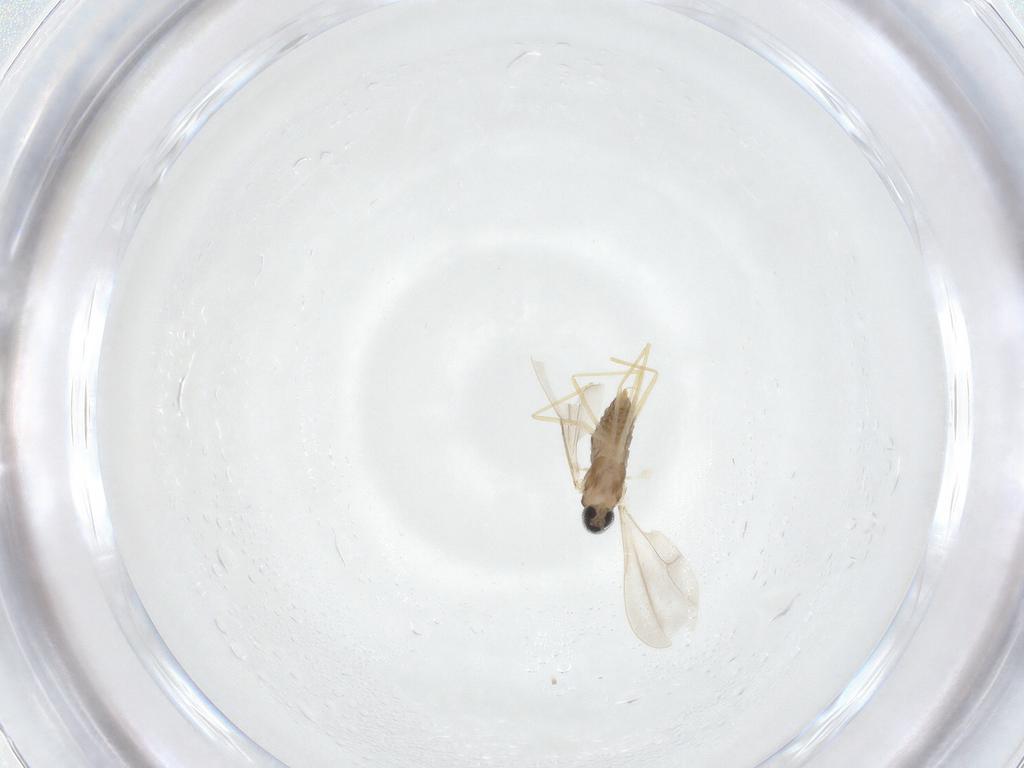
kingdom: Animalia
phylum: Arthropoda
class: Insecta
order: Diptera
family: Cecidomyiidae
